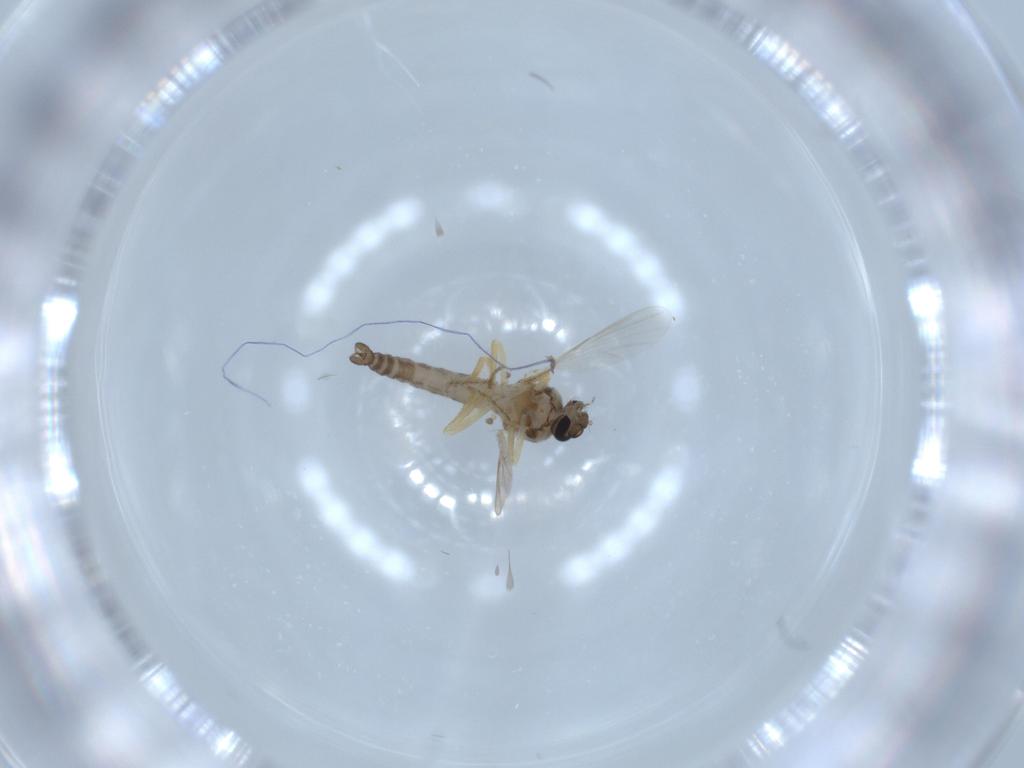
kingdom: Animalia
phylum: Arthropoda
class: Insecta
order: Diptera
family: Ceratopogonidae
